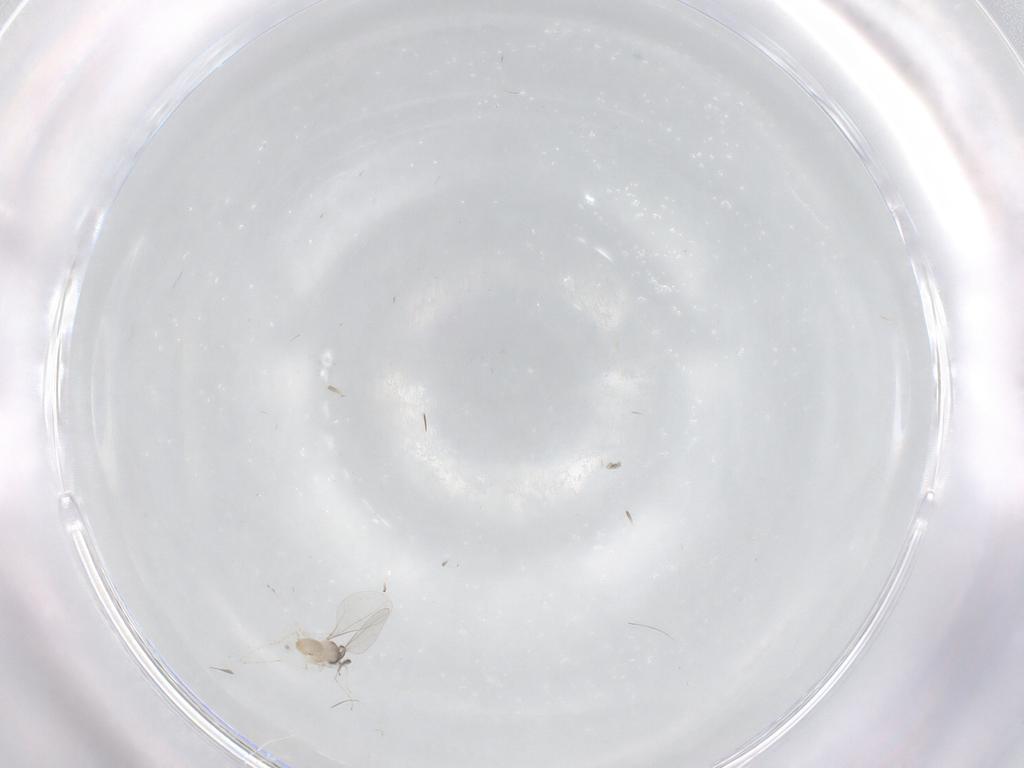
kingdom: Animalia
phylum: Arthropoda
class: Insecta
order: Diptera
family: Cecidomyiidae
